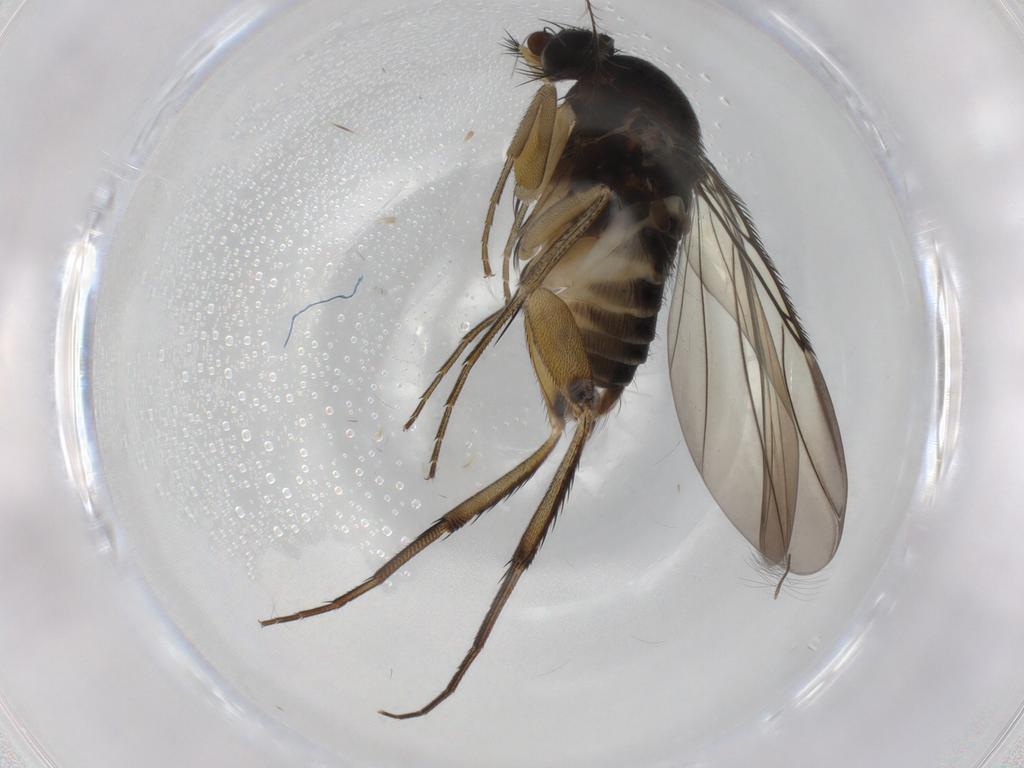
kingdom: Animalia
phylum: Arthropoda
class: Insecta
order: Diptera
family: Phoridae
